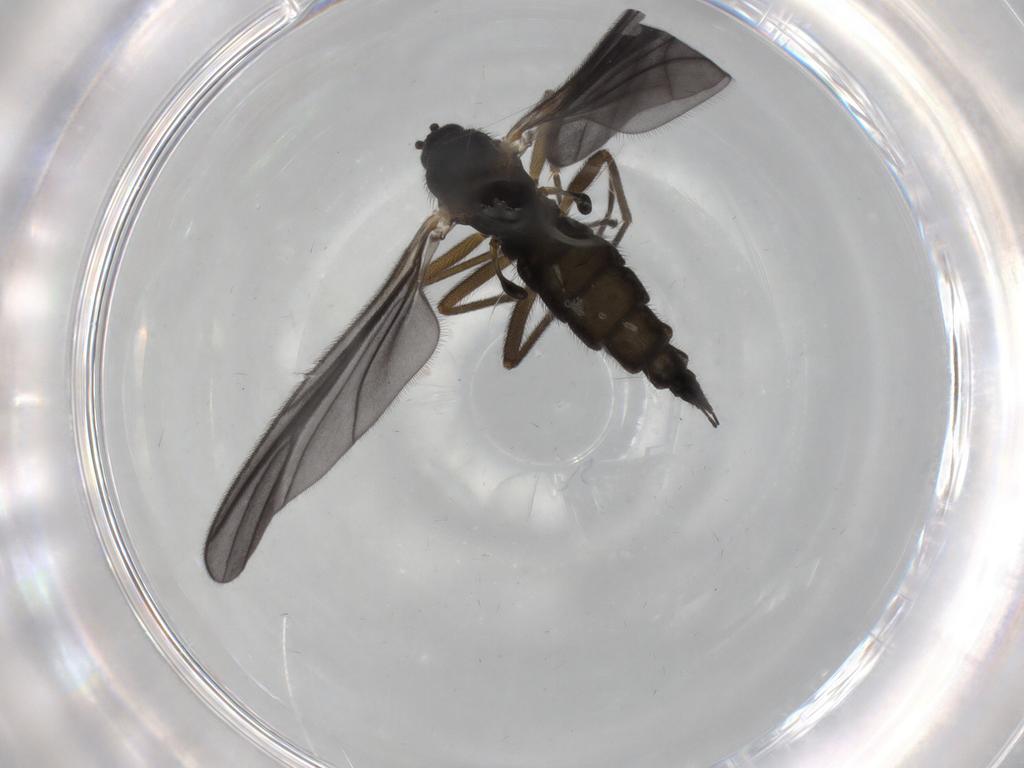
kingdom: Animalia
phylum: Arthropoda
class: Insecta
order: Diptera
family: Sciaridae
